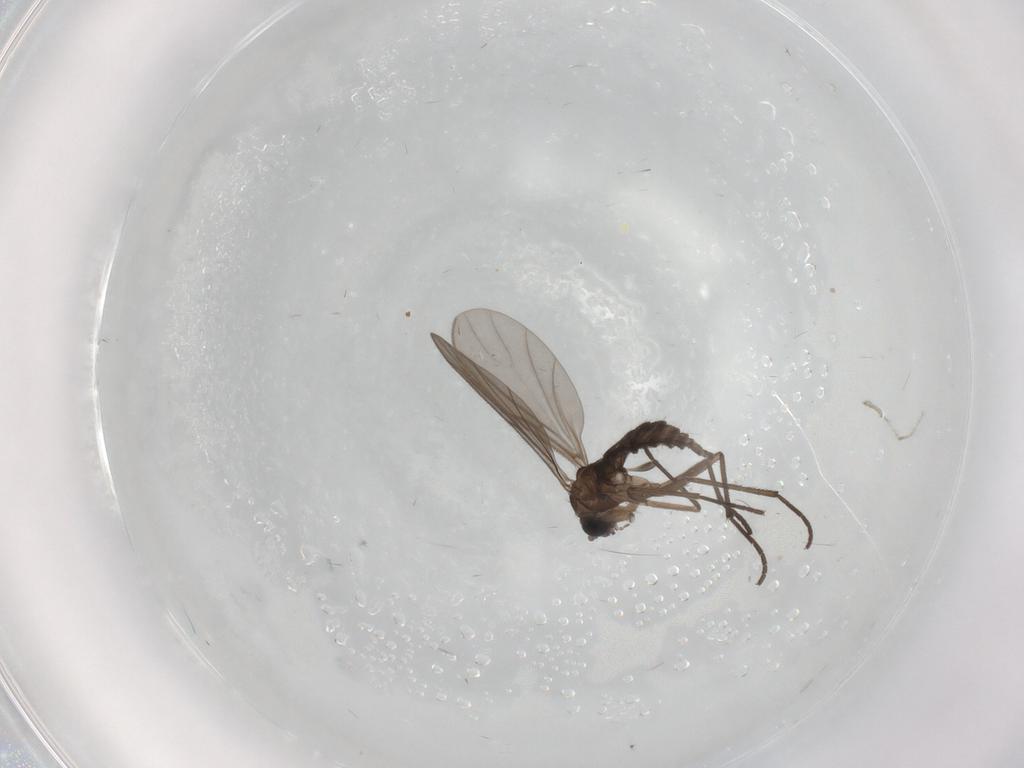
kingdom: Animalia
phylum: Arthropoda
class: Insecta
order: Diptera
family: Sciaridae
